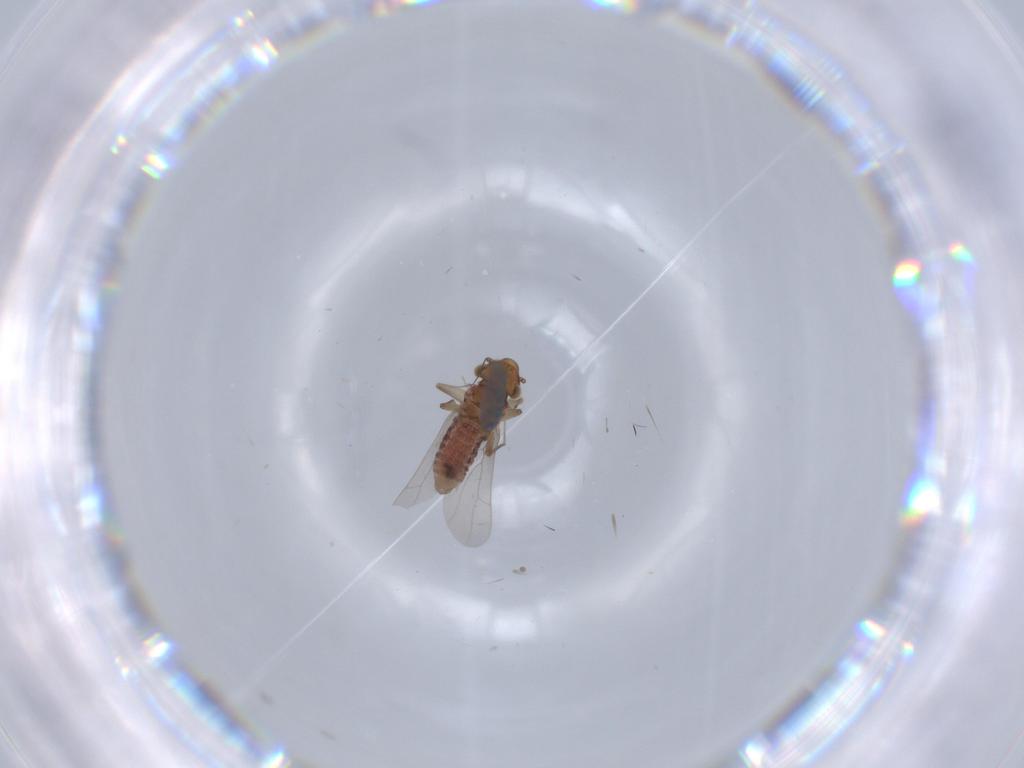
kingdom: Animalia
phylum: Arthropoda
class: Insecta
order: Psocodea
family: Lepidopsocidae
